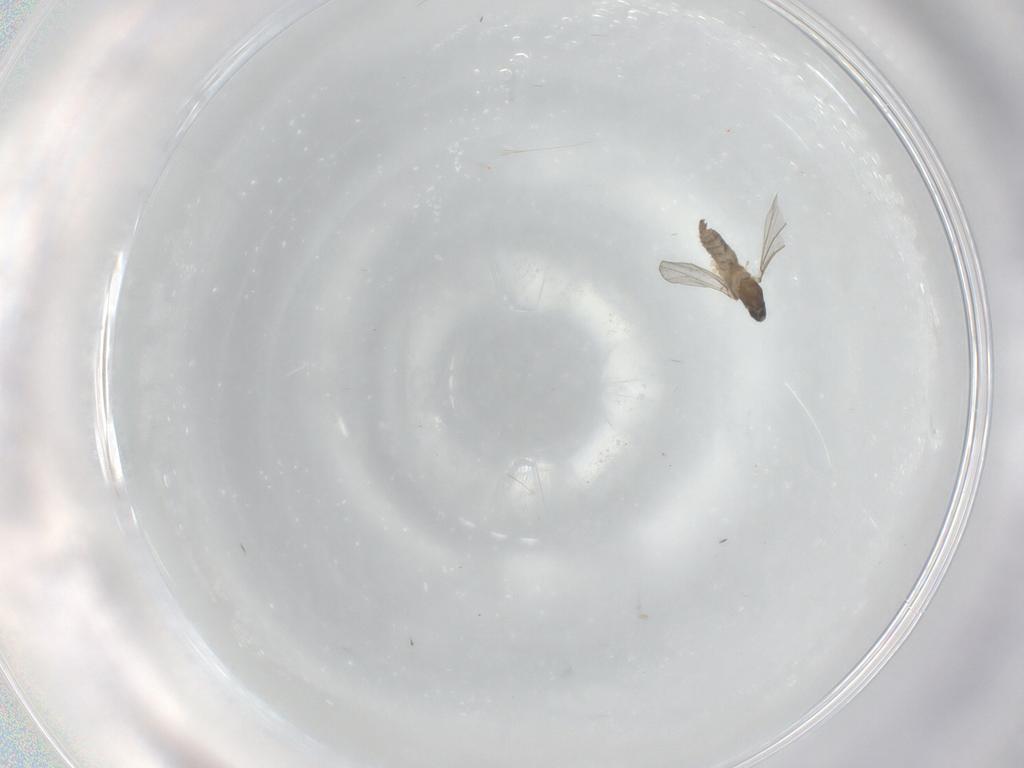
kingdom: Animalia
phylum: Arthropoda
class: Insecta
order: Diptera
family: Cecidomyiidae
